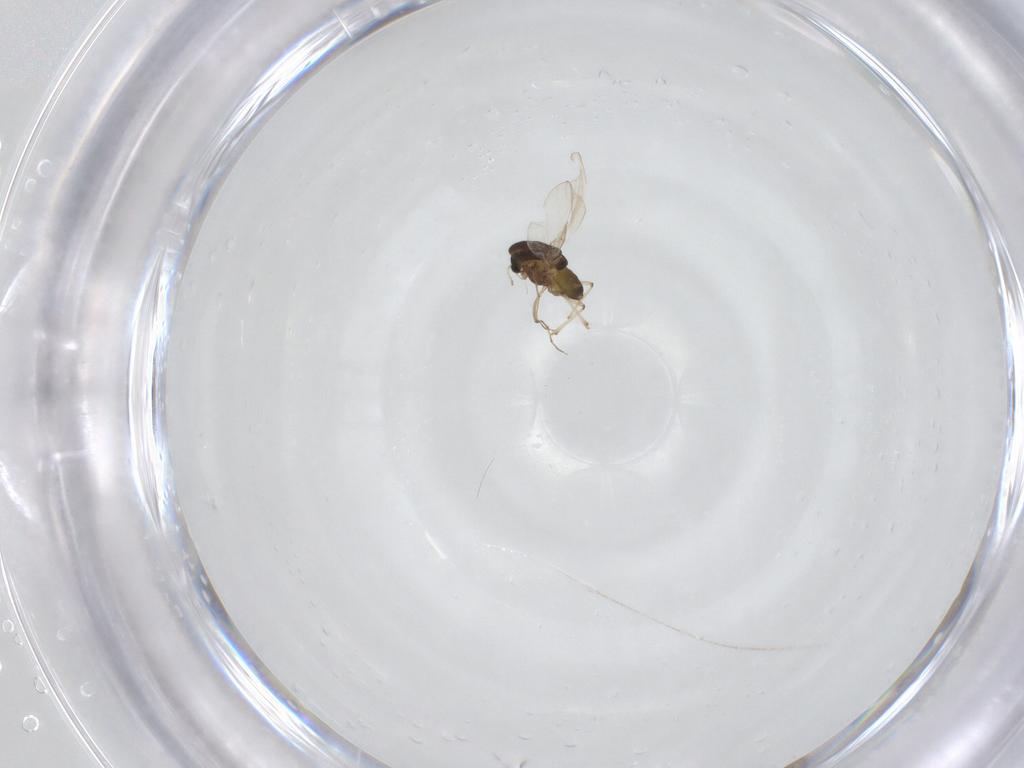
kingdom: Animalia
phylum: Arthropoda
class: Insecta
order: Diptera
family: Chironomidae
